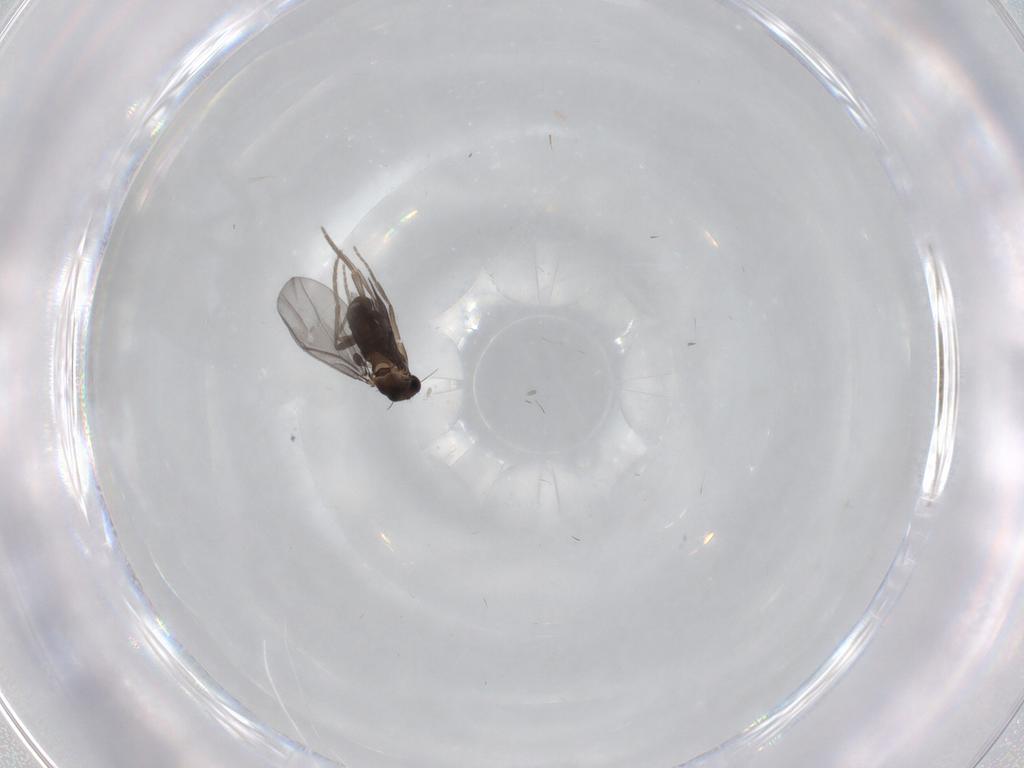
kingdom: Animalia
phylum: Arthropoda
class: Insecta
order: Diptera
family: Phoridae
